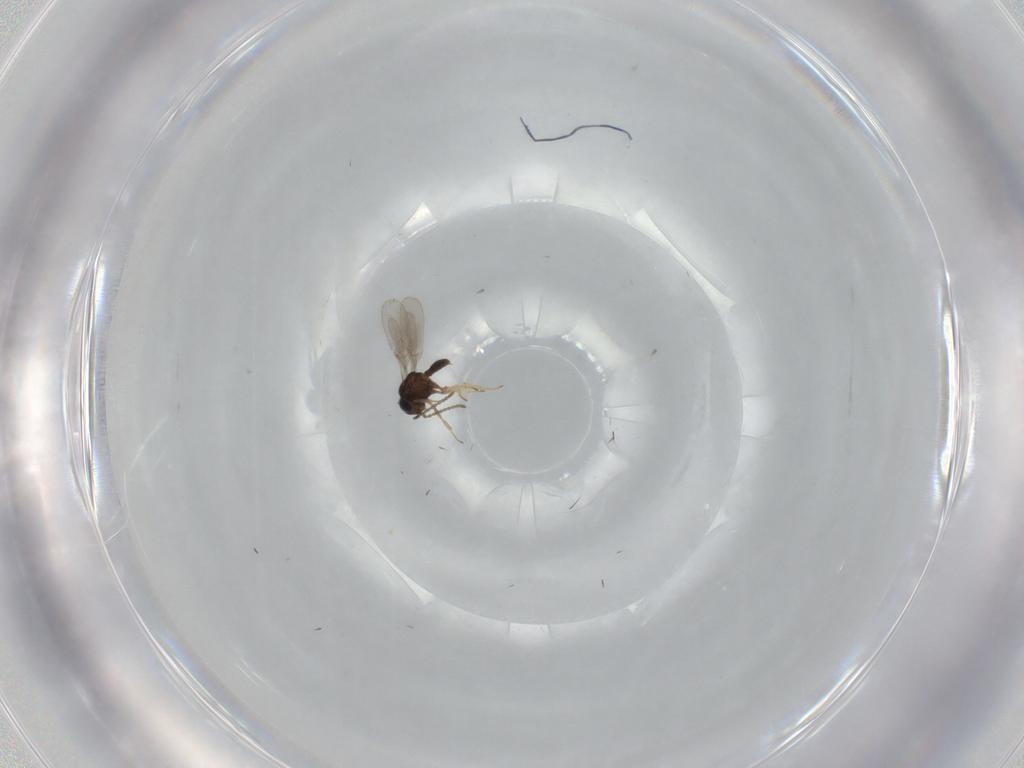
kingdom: Animalia
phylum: Arthropoda
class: Insecta
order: Hymenoptera
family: Scelionidae
